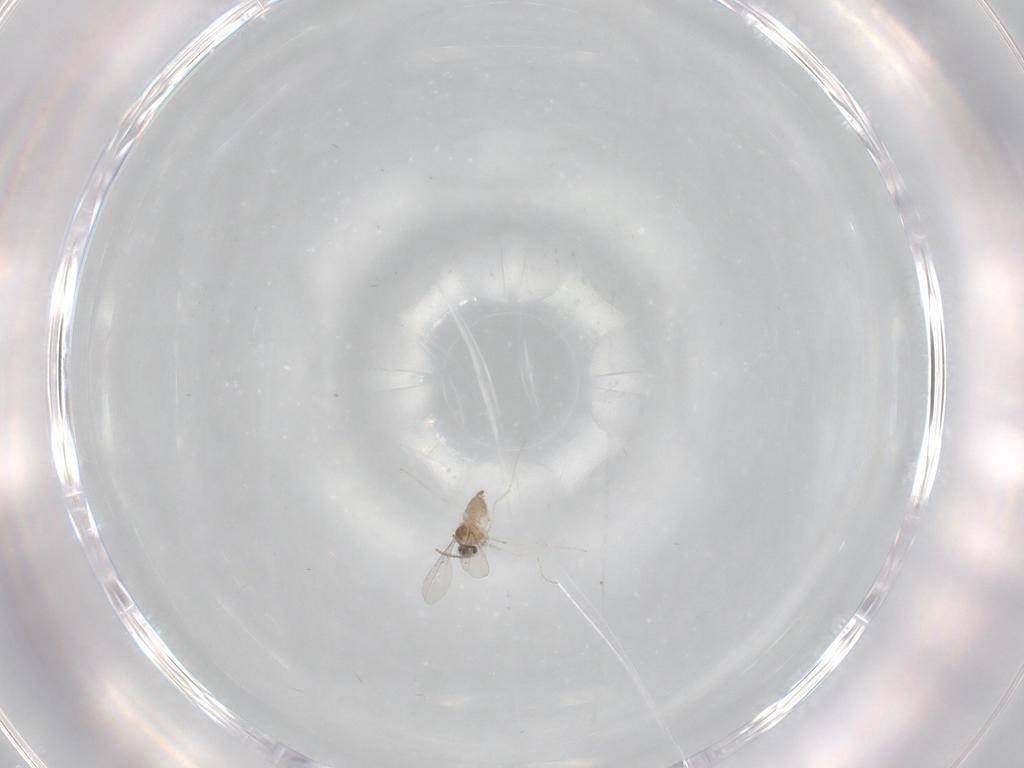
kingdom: Animalia
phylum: Arthropoda
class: Insecta
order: Diptera
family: Cecidomyiidae
